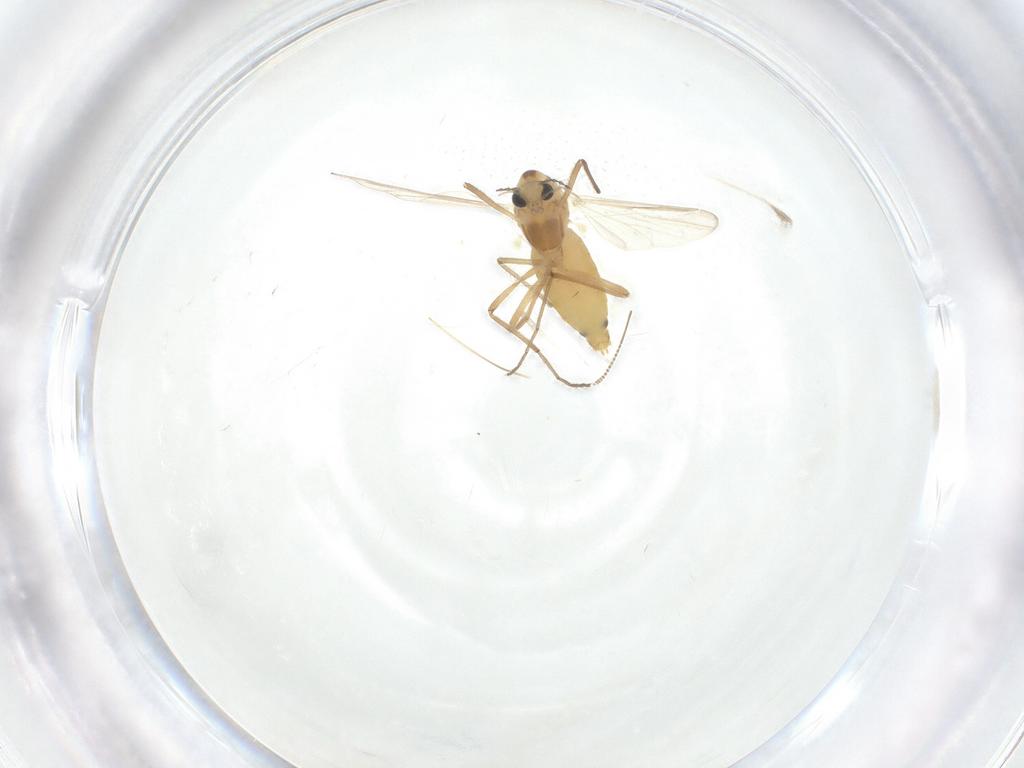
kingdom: Animalia
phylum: Arthropoda
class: Insecta
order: Diptera
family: Chironomidae
